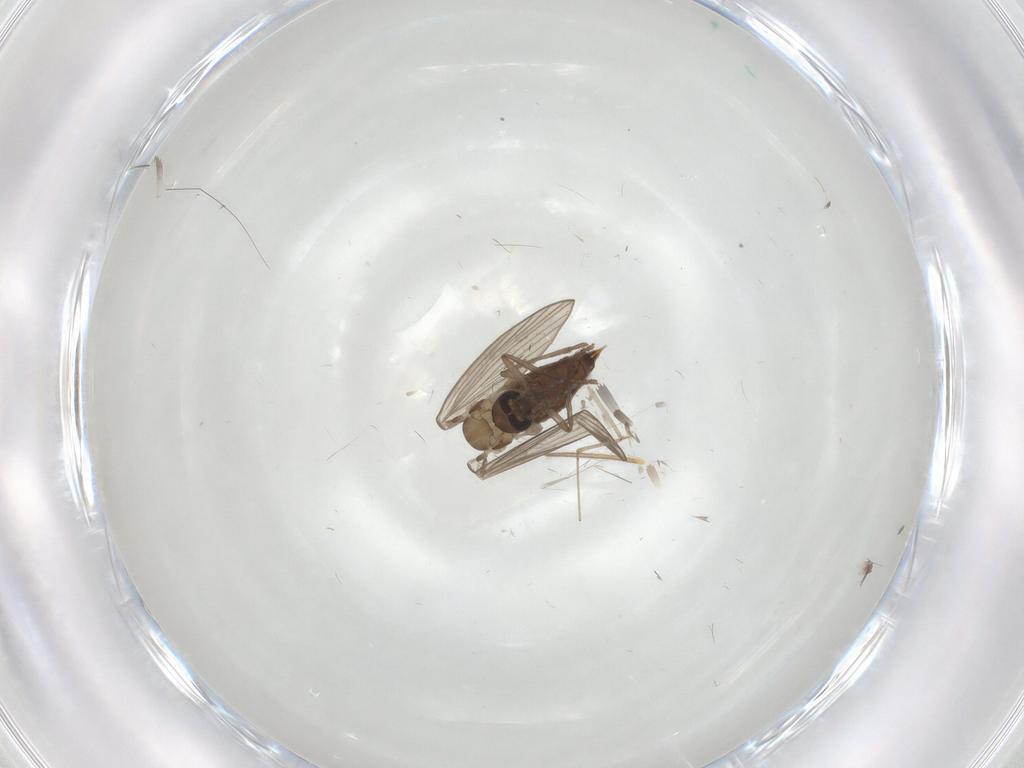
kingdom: Animalia
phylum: Arthropoda
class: Insecta
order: Diptera
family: Psychodidae
